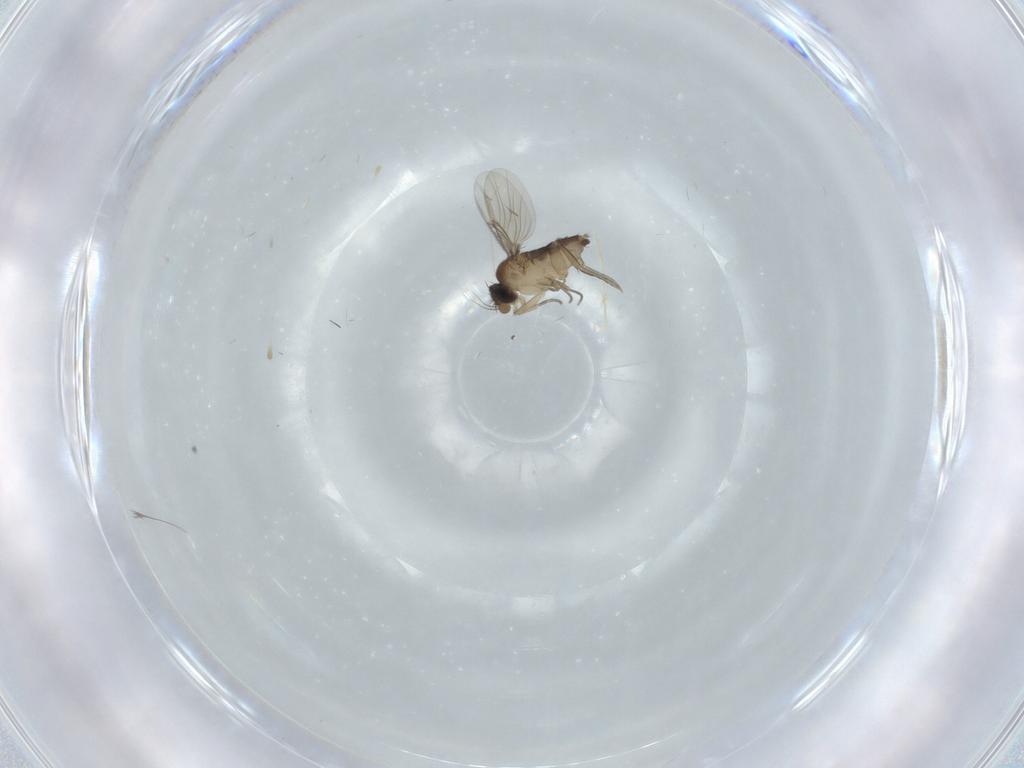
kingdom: Animalia
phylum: Arthropoda
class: Insecta
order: Diptera
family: Phoridae
